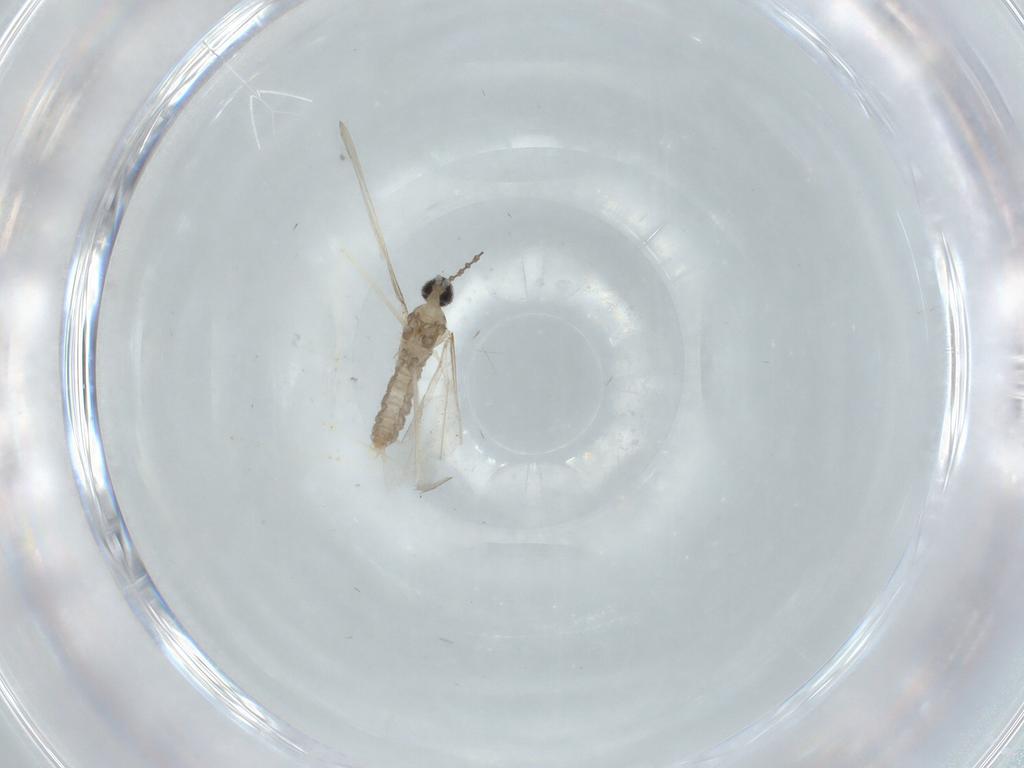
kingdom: Animalia
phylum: Arthropoda
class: Insecta
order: Diptera
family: Cecidomyiidae
